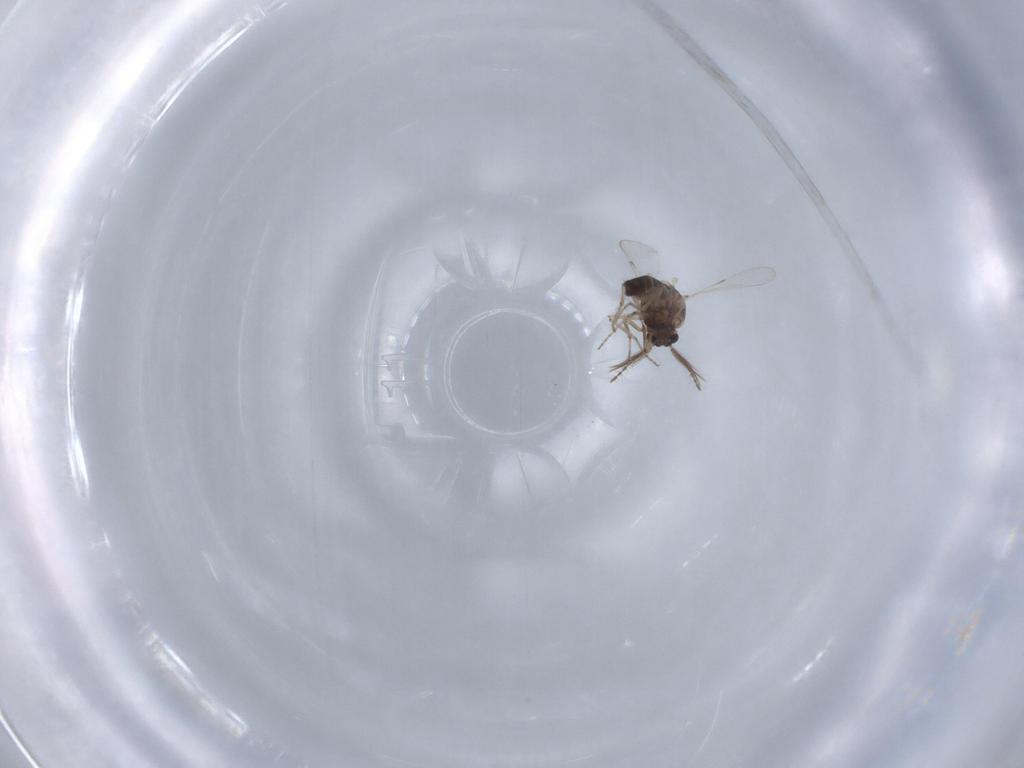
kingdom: Animalia
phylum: Arthropoda
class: Insecta
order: Diptera
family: Ceratopogonidae
